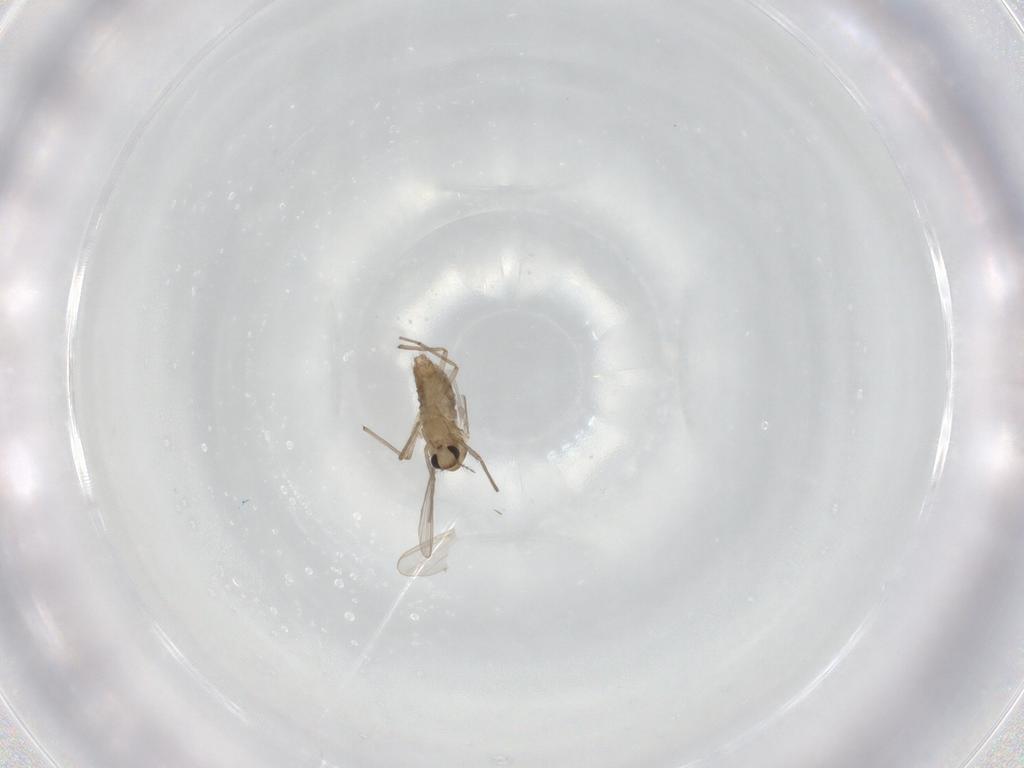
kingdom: Animalia
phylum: Arthropoda
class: Insecta
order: Diptera
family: Chironomidae
